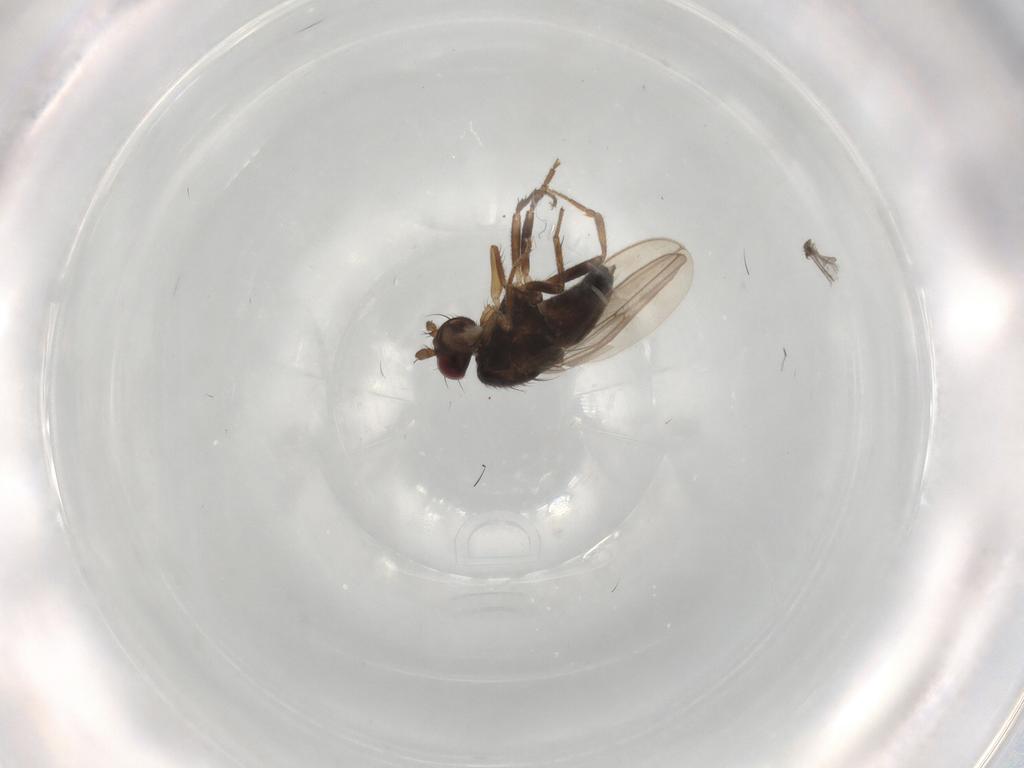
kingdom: Animalia
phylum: Arthropoda
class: Insecta
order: Diptera
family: Sphaeroceridae
